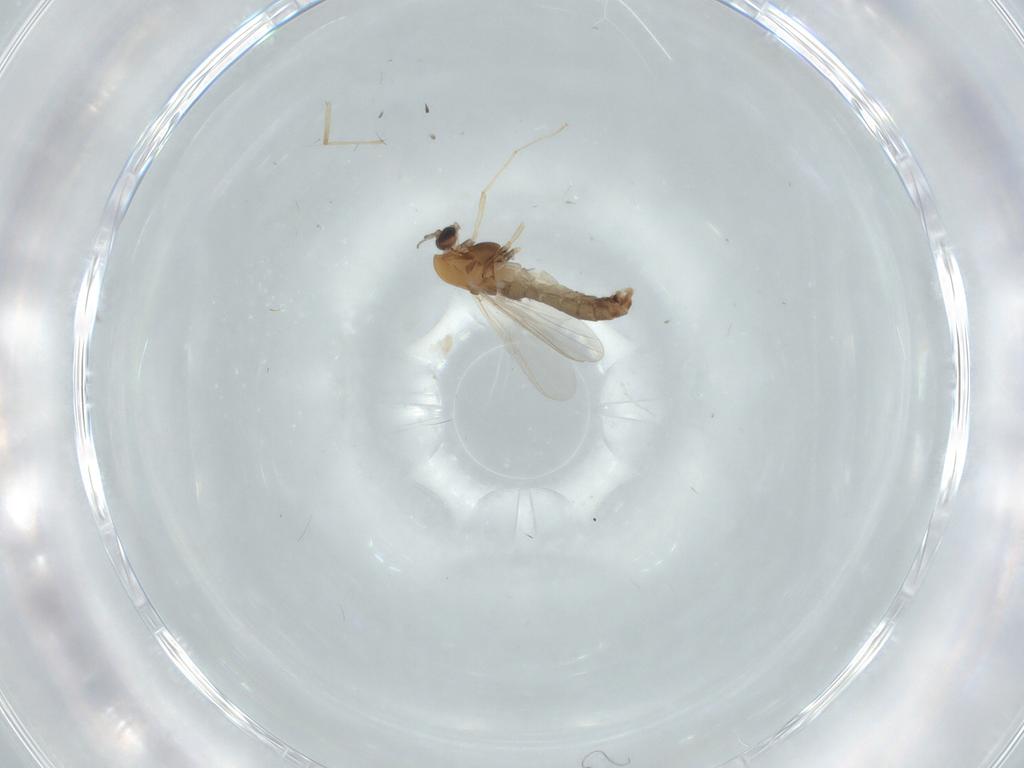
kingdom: Animalia
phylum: Arthropoda
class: Insecta
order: Diptera
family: Chironomidae
